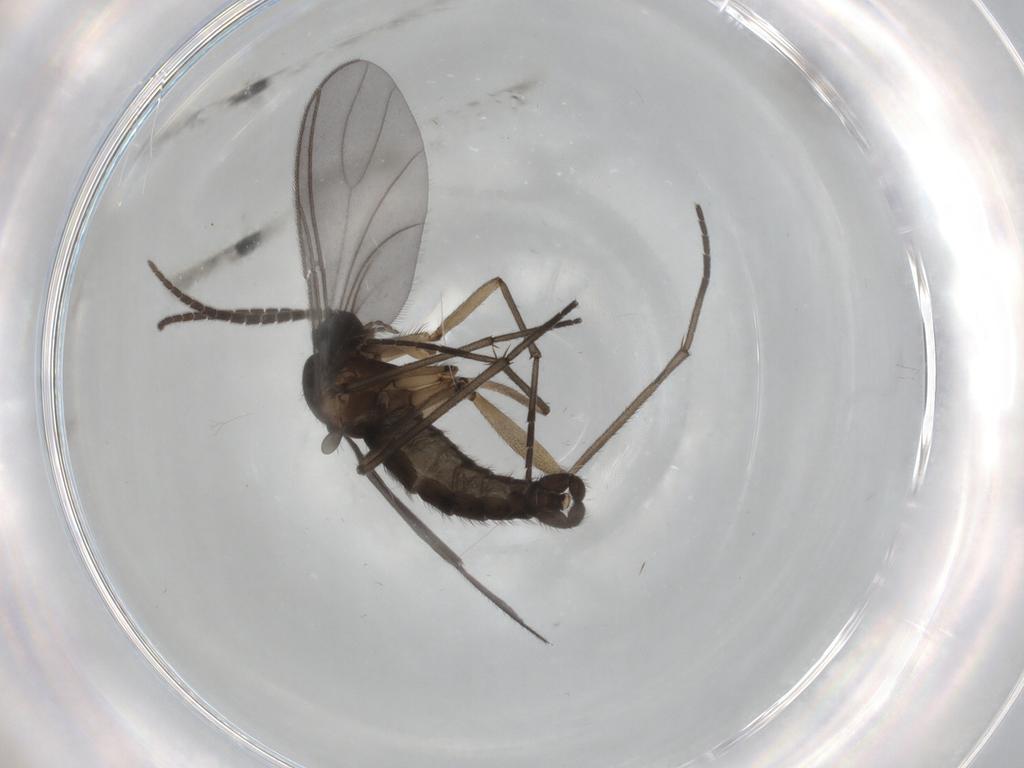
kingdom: Animalia
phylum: Arthropoda
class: Insecta
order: Diptera
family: Sciaridae
